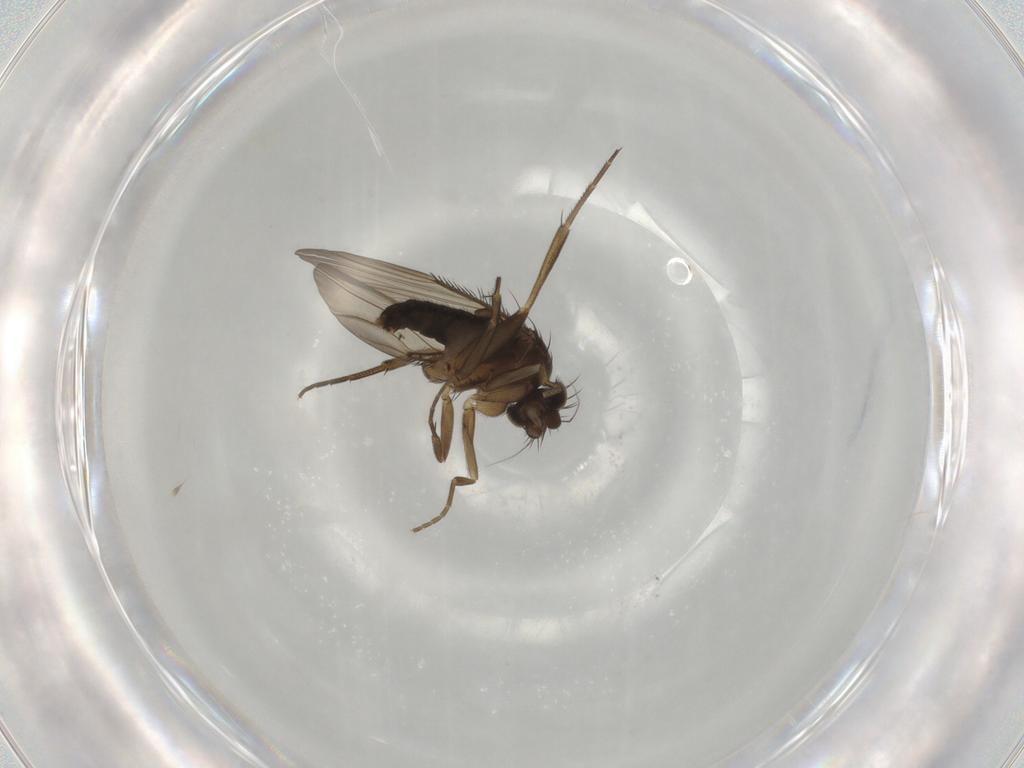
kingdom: Animalia
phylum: Arthropoda
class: Insecta
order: Diptera
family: Phoridae
